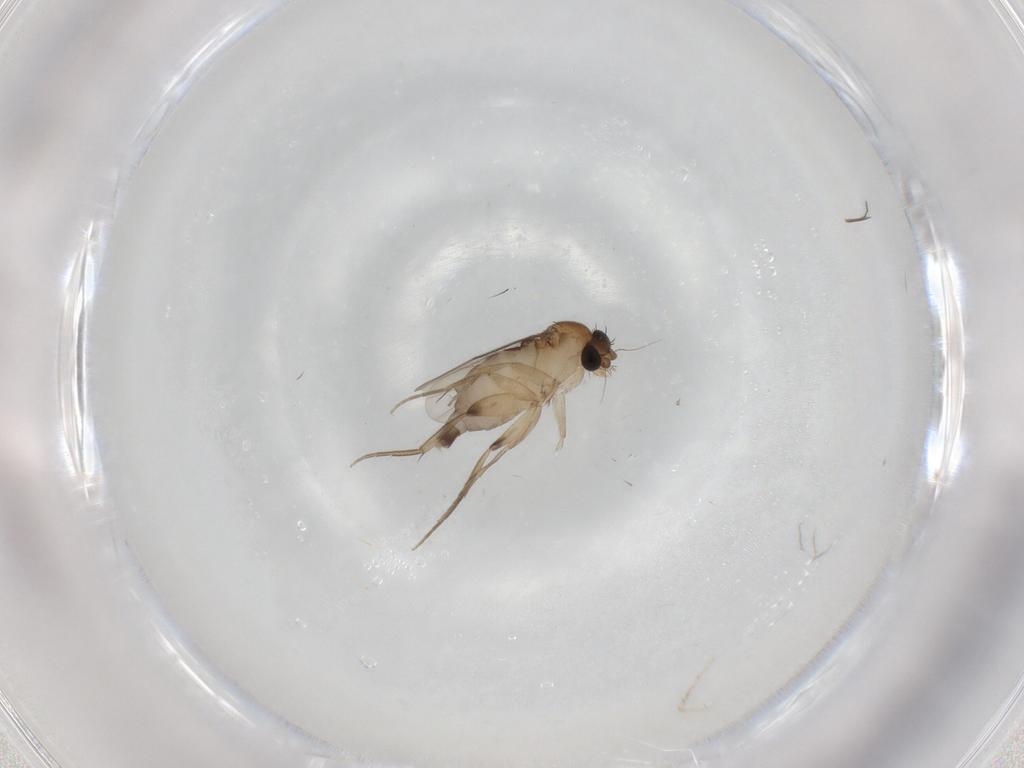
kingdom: Animalia
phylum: Arthropoda
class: Insecta
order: Diptera
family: Phoridae
